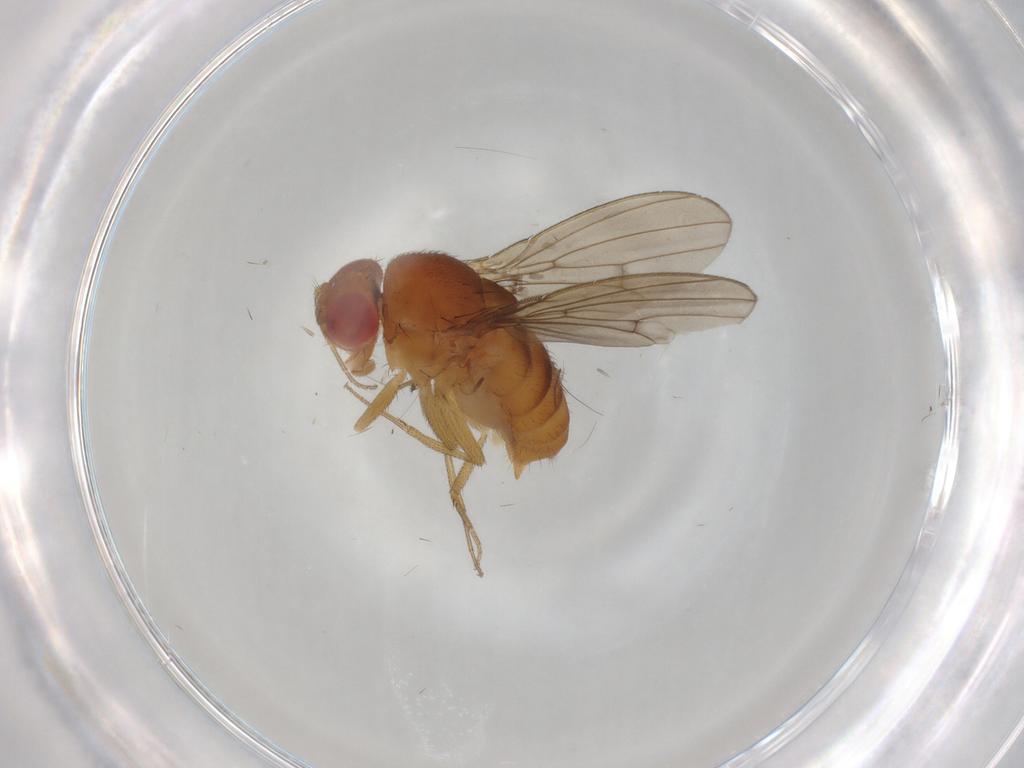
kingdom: Animalia
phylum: Arthropoda
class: Insecta
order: Diptera
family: Drosophilidae
